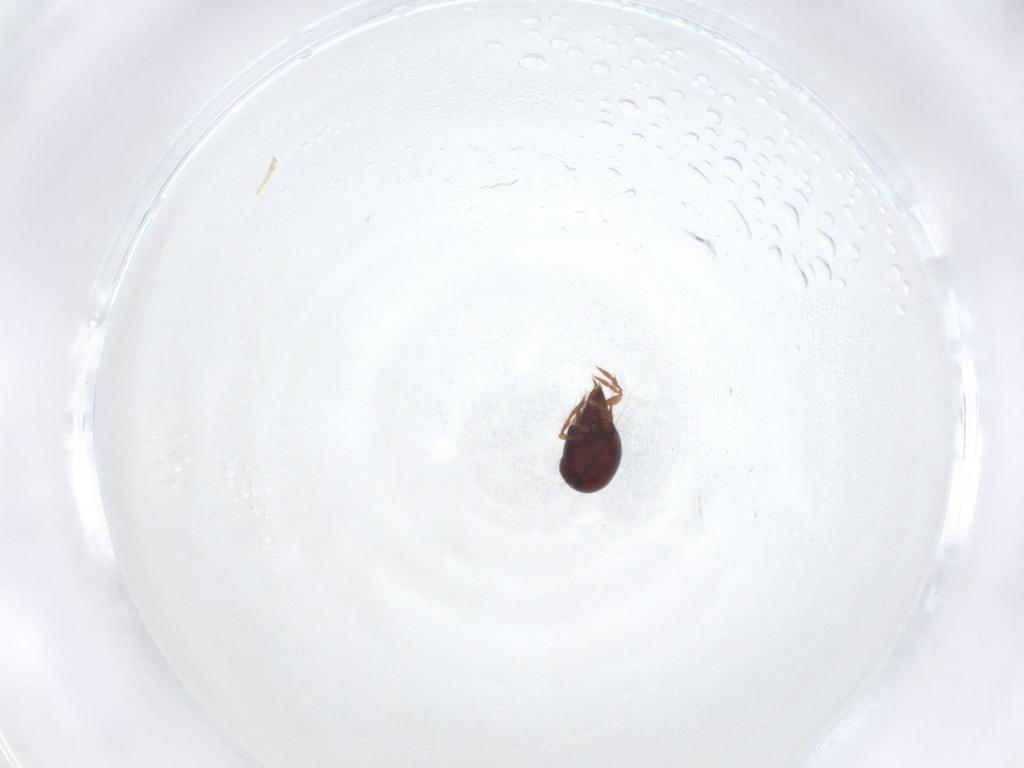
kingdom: Animalia
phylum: Arthropoda
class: Arachnida
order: Sarcoptiformes
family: Ceratoppiidae
